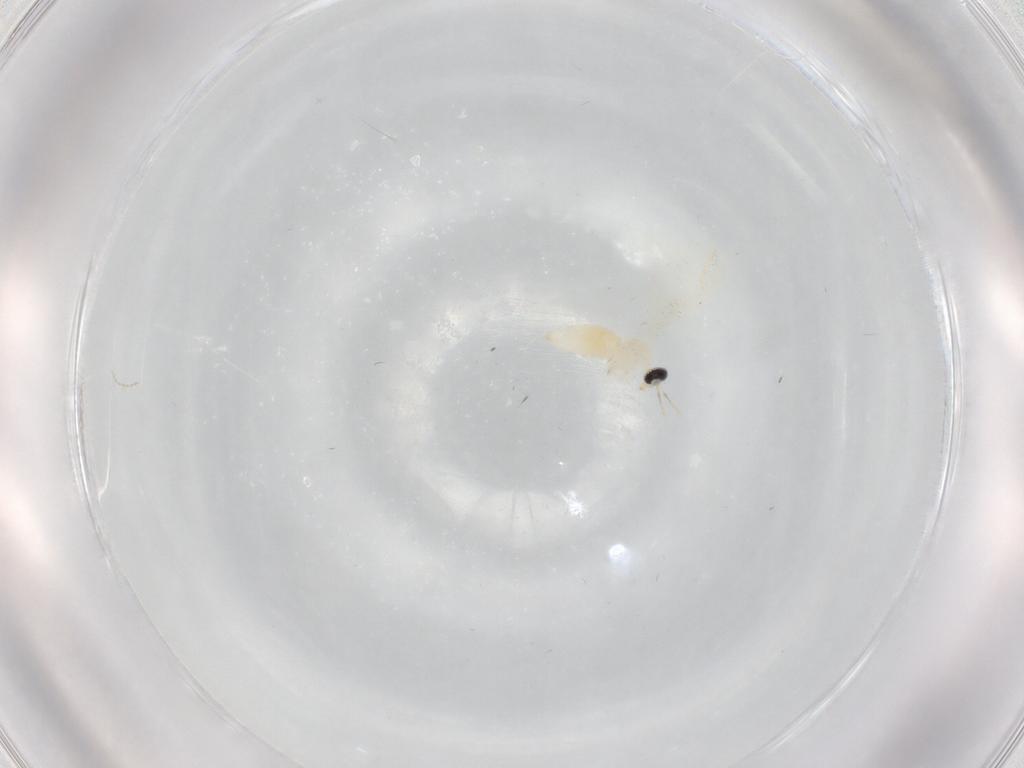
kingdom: Animalia
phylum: Arthropoda
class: Insecta
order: Diptera
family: Cecidomyiidae
